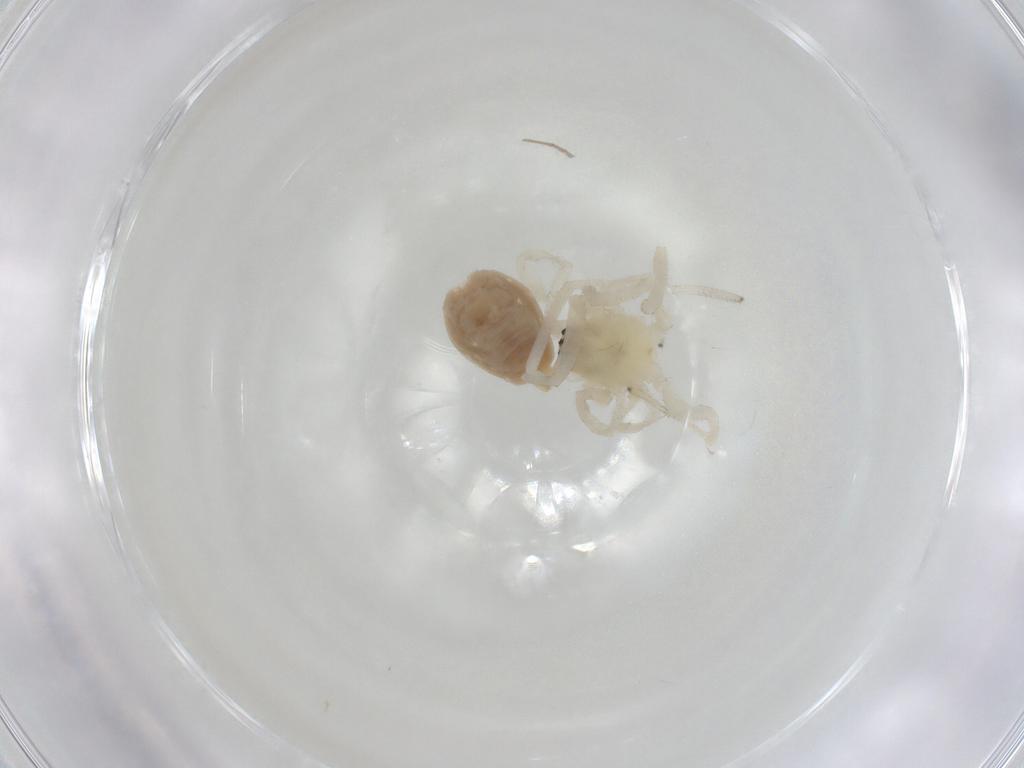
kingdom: Animalia
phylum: Arthropoda
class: Insecta
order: Diptera
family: Cecidomyiidae
